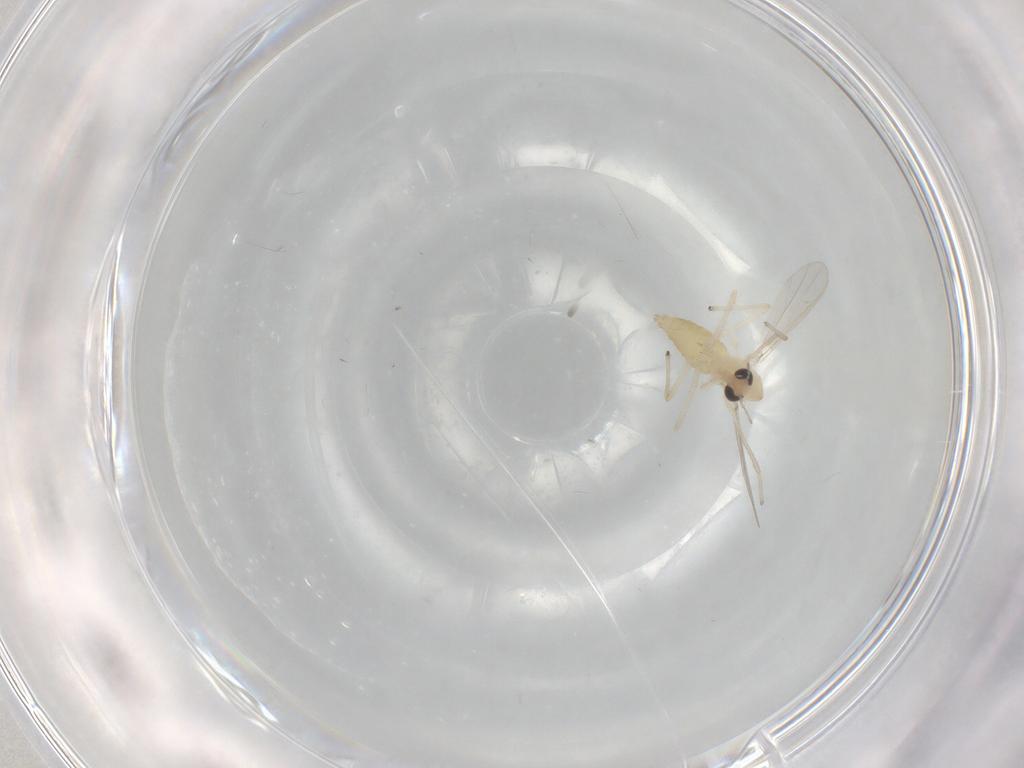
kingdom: Animalia
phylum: Arthropoda
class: Insecta
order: Diptera
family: Chironomidae
